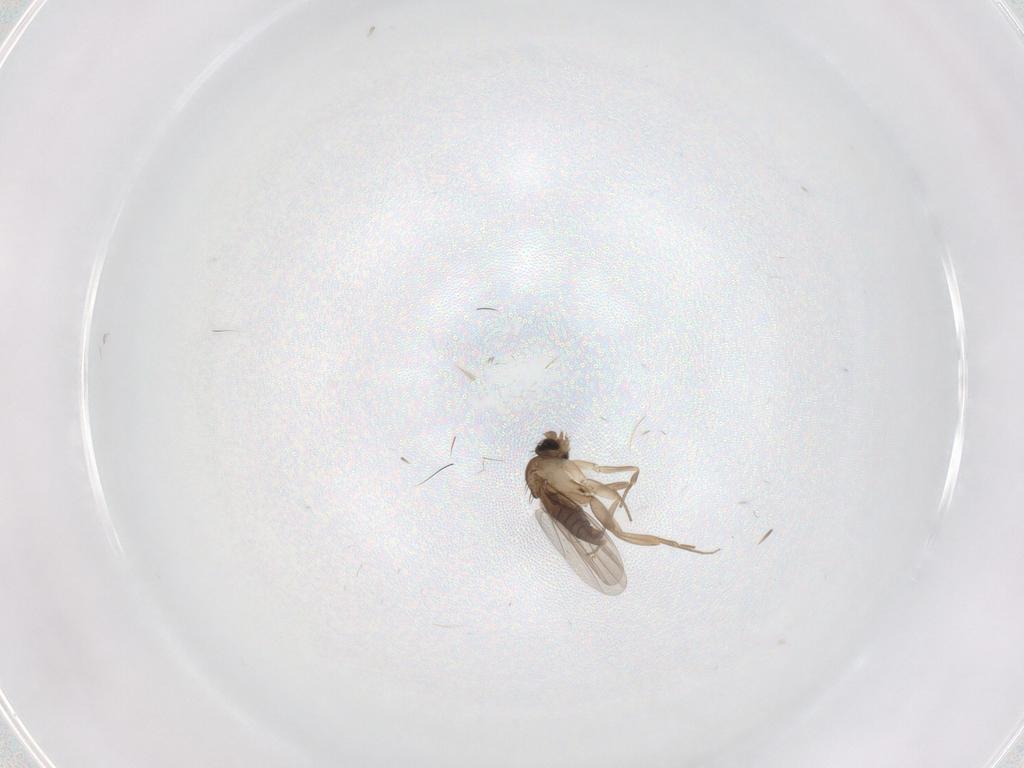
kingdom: Animalia
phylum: Arthropoda
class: Insecta
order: Diptera
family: Phoridae
